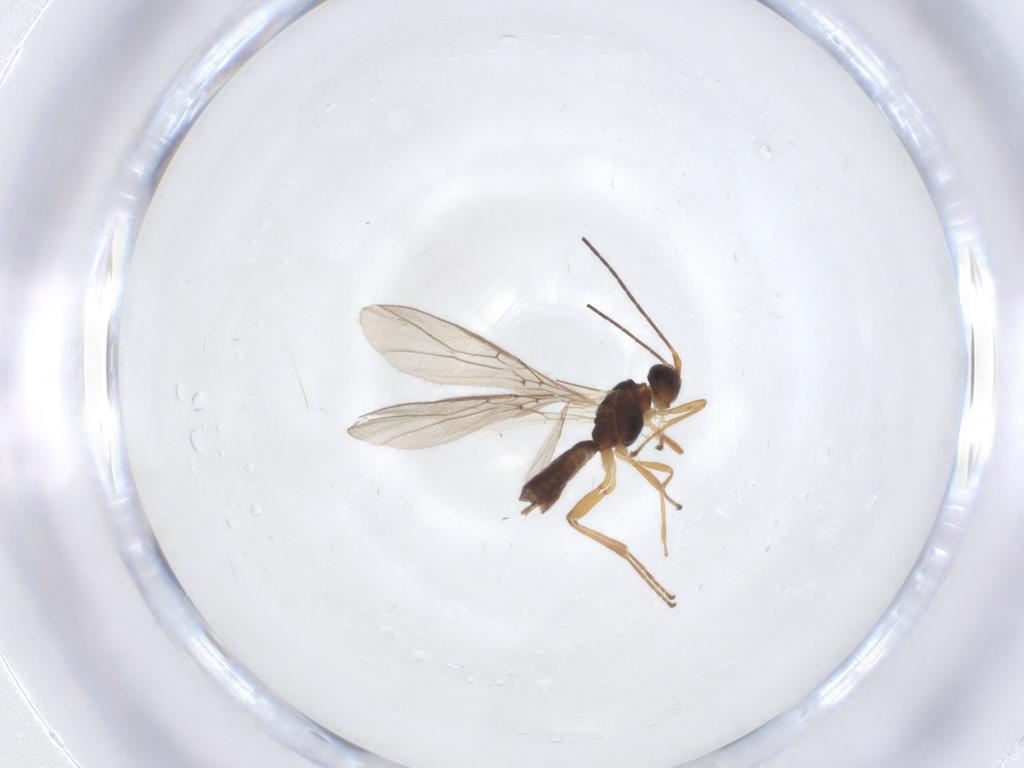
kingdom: Animalia
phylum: Arthropoda
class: Insecta
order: Hymenoptera
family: Braconidae
